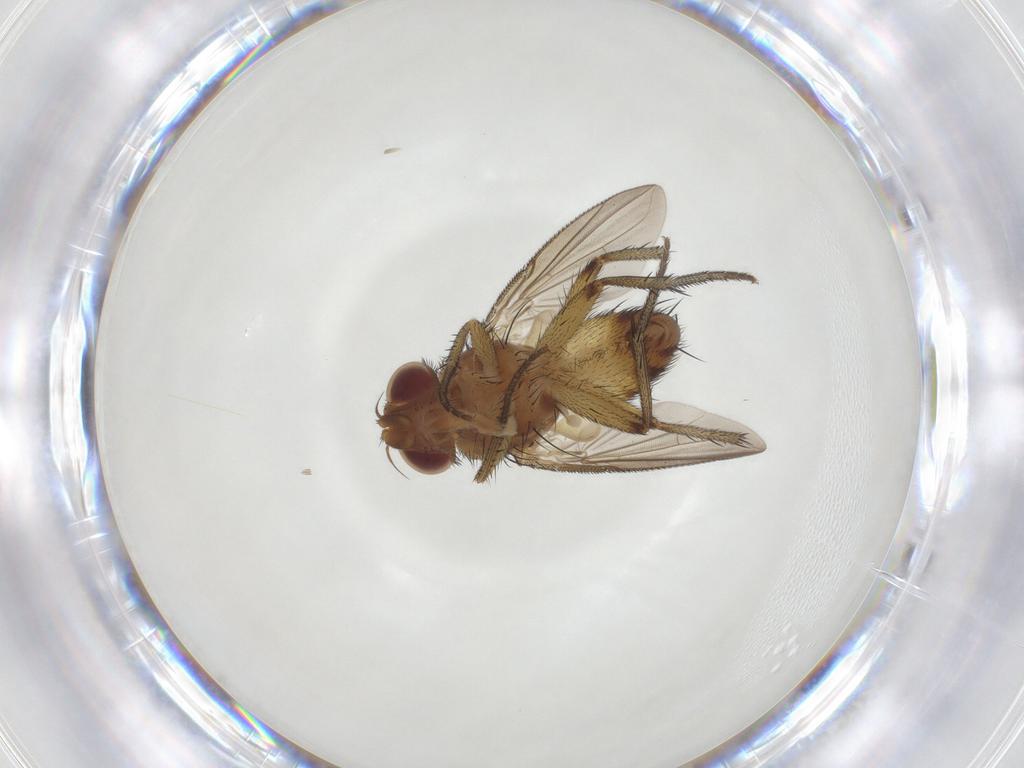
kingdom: Animalia
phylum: Arthropoda
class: Insecta
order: Diptera
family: Tachinidae
